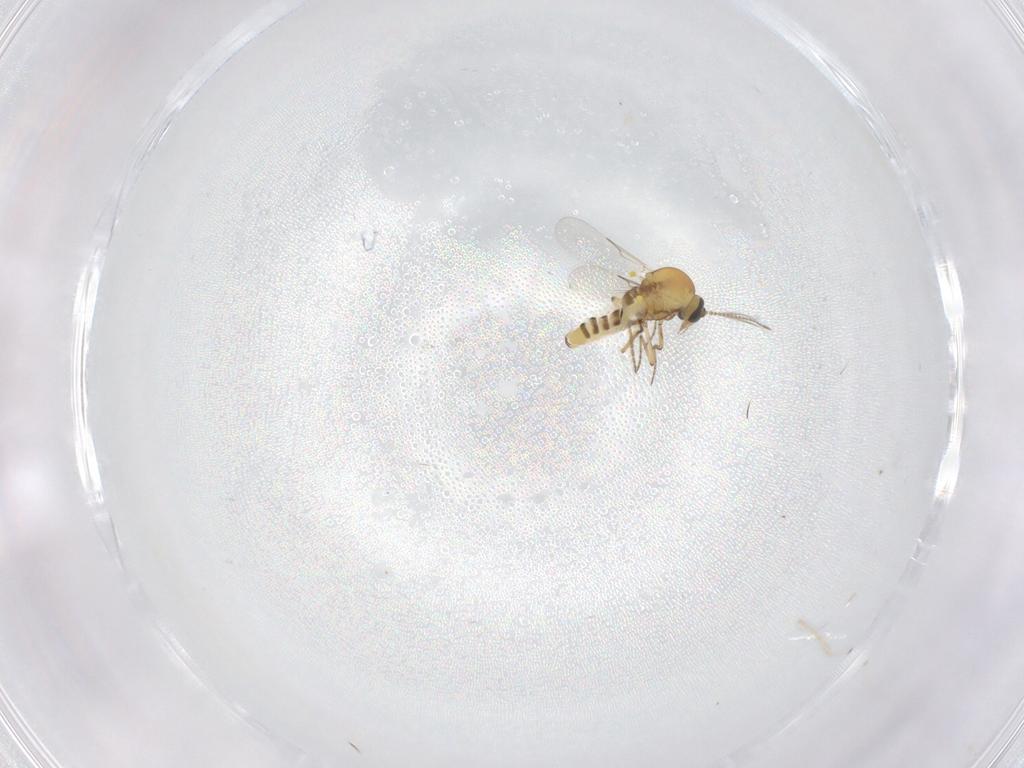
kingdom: Animalia
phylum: Arthropoda
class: Insecta
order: Diptera
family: Ceratopogonidae
